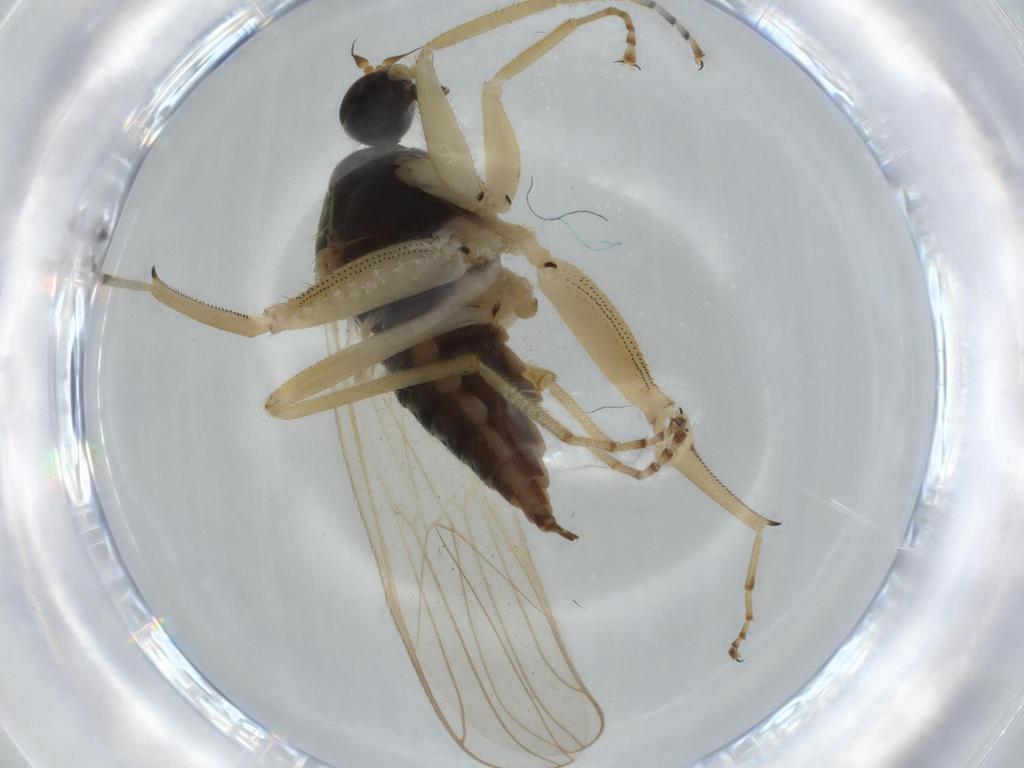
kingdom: Animalia
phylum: Arthropoda
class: Insecta
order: Diptera
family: Hybotidae
